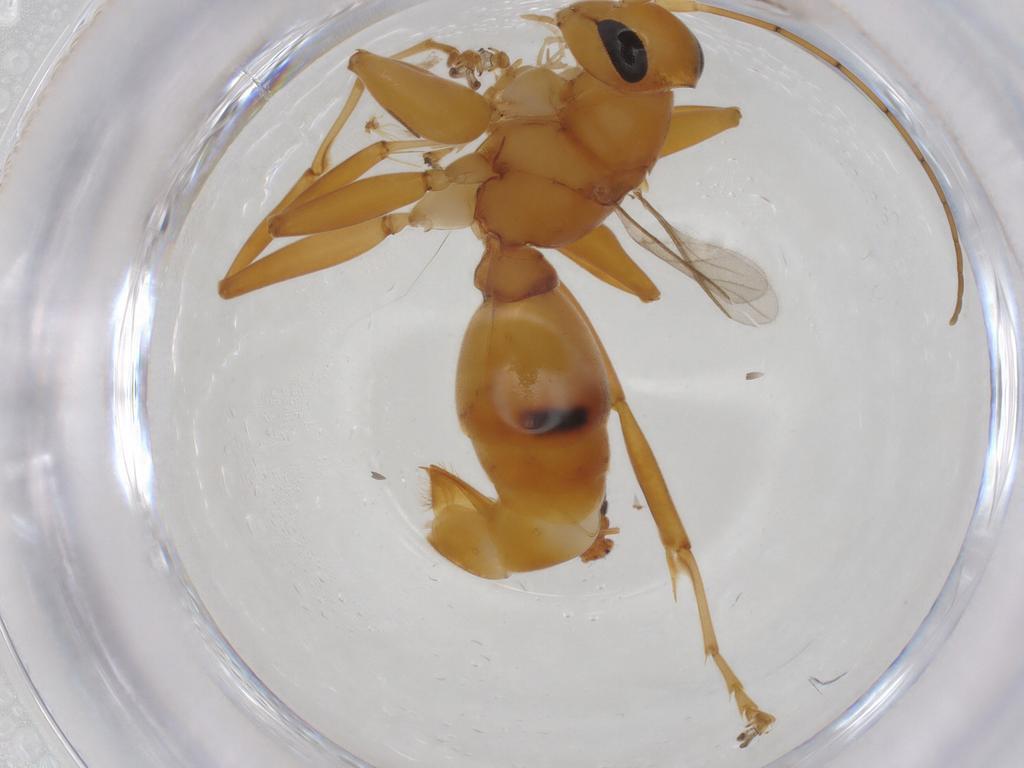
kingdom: Animalia
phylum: Arthropoda
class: Insecta
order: Hymenoptera
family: Rhopalosomatidae
